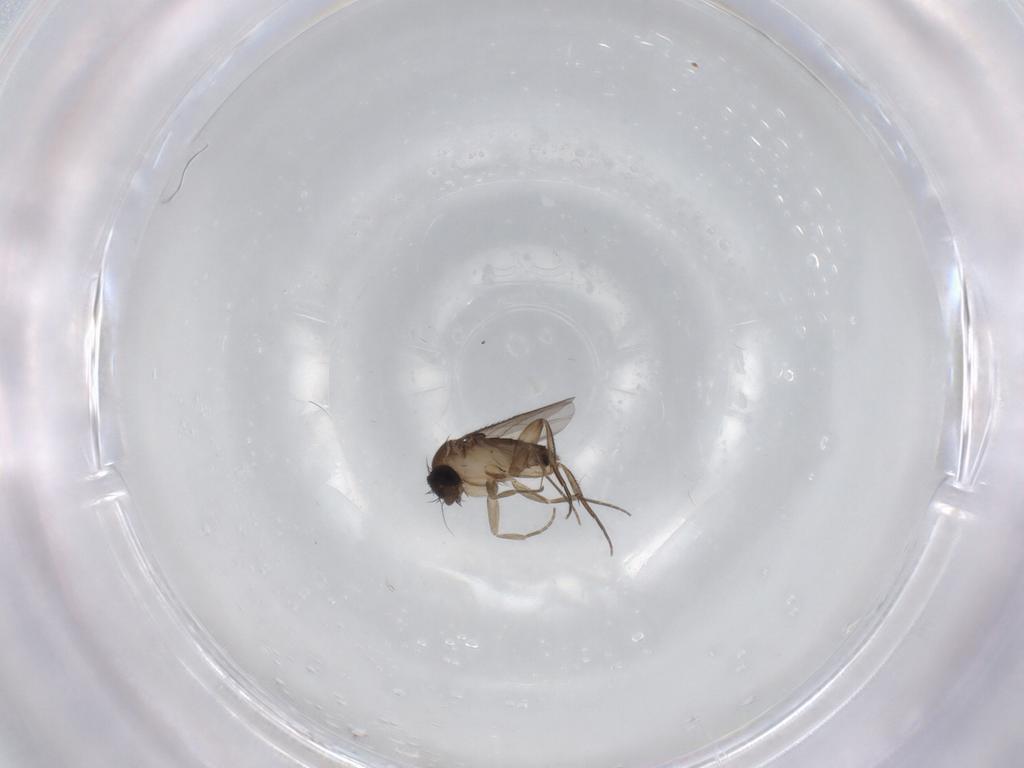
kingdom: Animalia
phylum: Arthropoda
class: Insecta
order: Diptera
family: Phoridae
